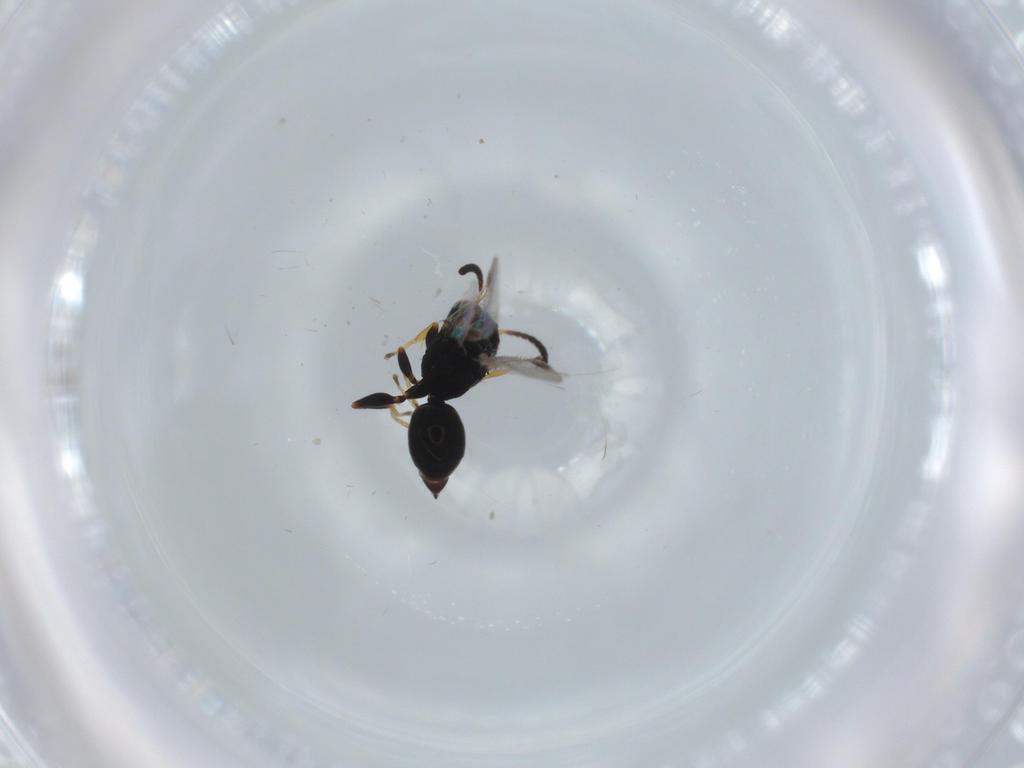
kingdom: Animalia
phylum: Arthropoda
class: Insecta
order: Hymenoptera
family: Dryinidae
